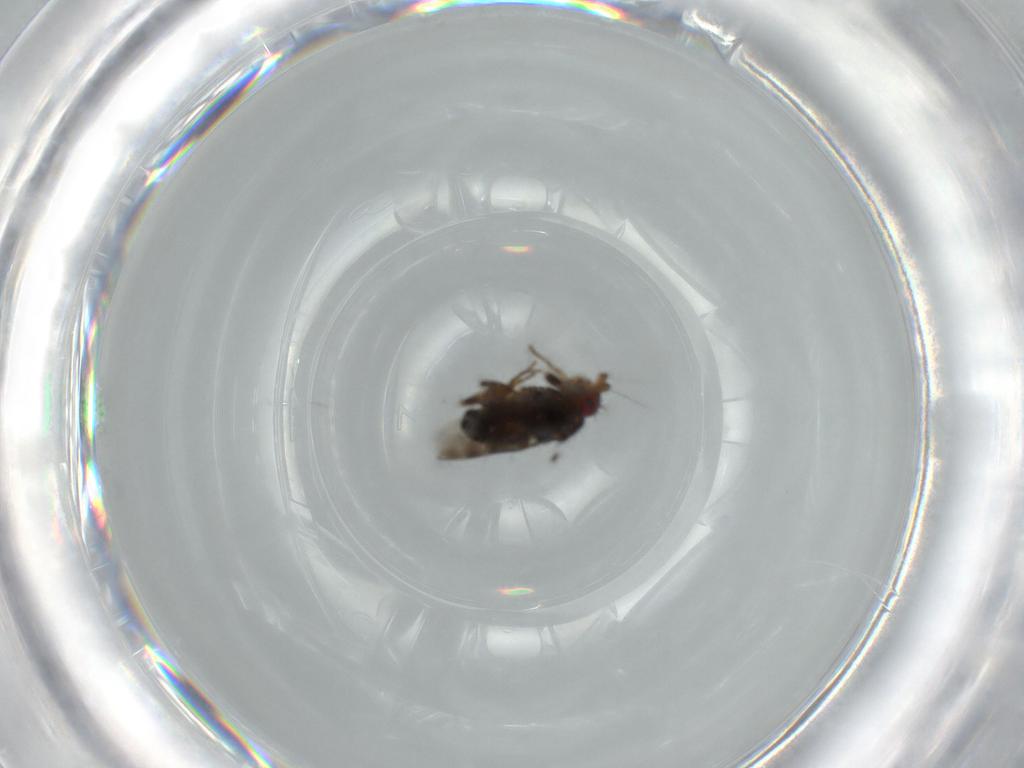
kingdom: Animalia
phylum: Arthropoda
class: Insecta
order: Diptera
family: Sphaeroceridae
